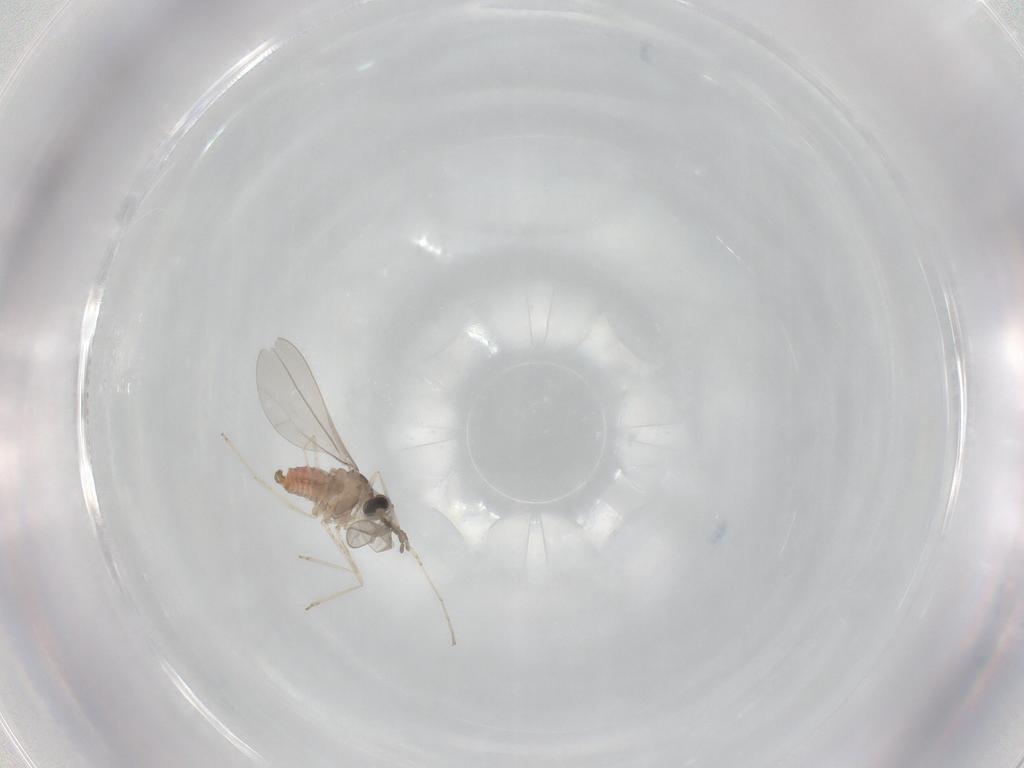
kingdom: Animalia
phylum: Arthropoda
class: Insecta
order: Diptera
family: Cecidomyiidae
